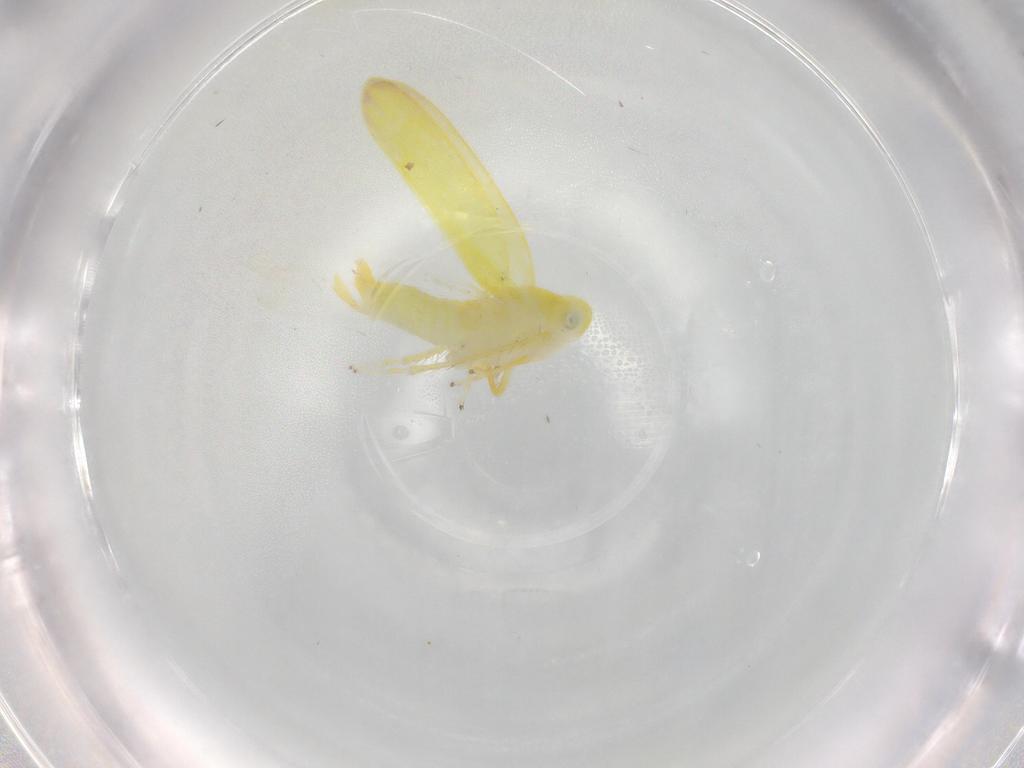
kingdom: Animalia
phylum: Arthropoda
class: Insecta
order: Hemiptera
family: Cicadellidae
